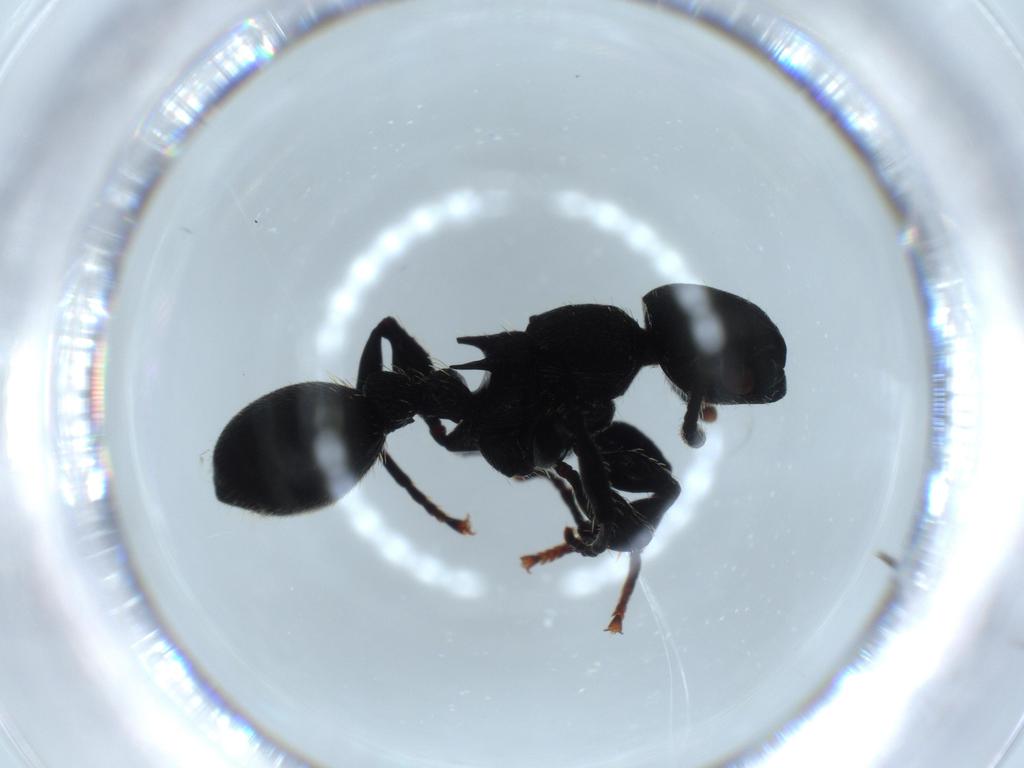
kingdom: Animalia
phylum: Arthropoda
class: Insecta
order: Hymenoptera
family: Formicidae
